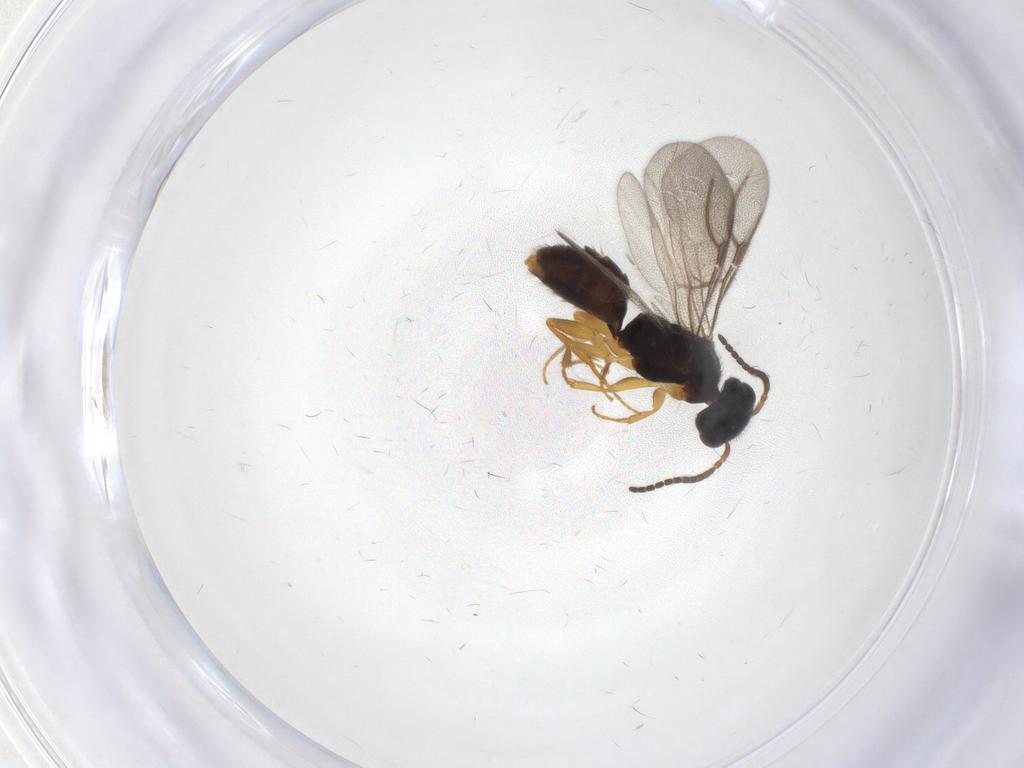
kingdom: Animalia
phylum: Arthropoda
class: Insecta
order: Hymenoptera
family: Bethylidae
